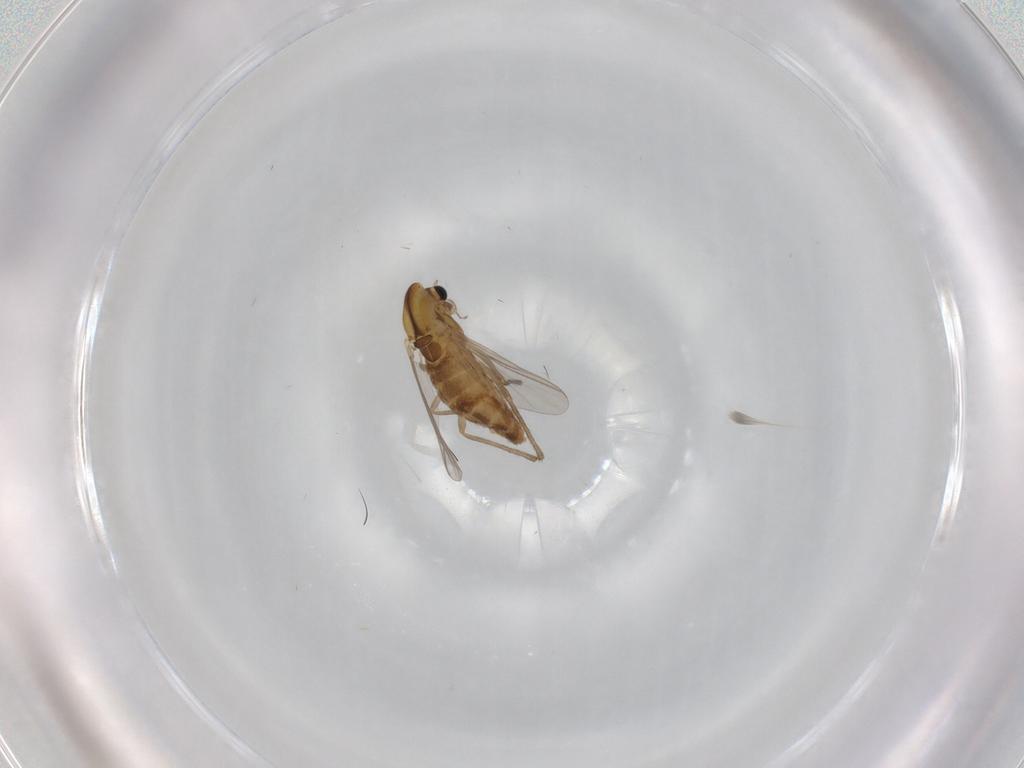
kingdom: Animalia
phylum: Arthropoda
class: Insecta
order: Diptera
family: Chironomidae
